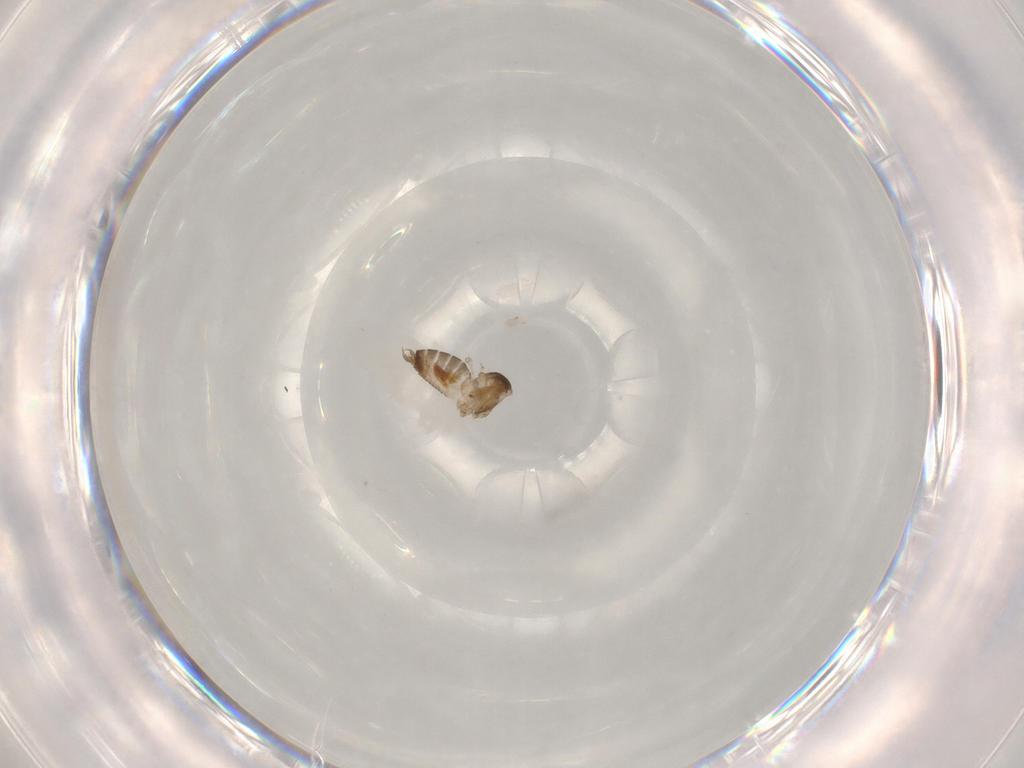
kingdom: Animalia
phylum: Arthropoda
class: Insecta
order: Diptera
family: Cecidomyiidae
